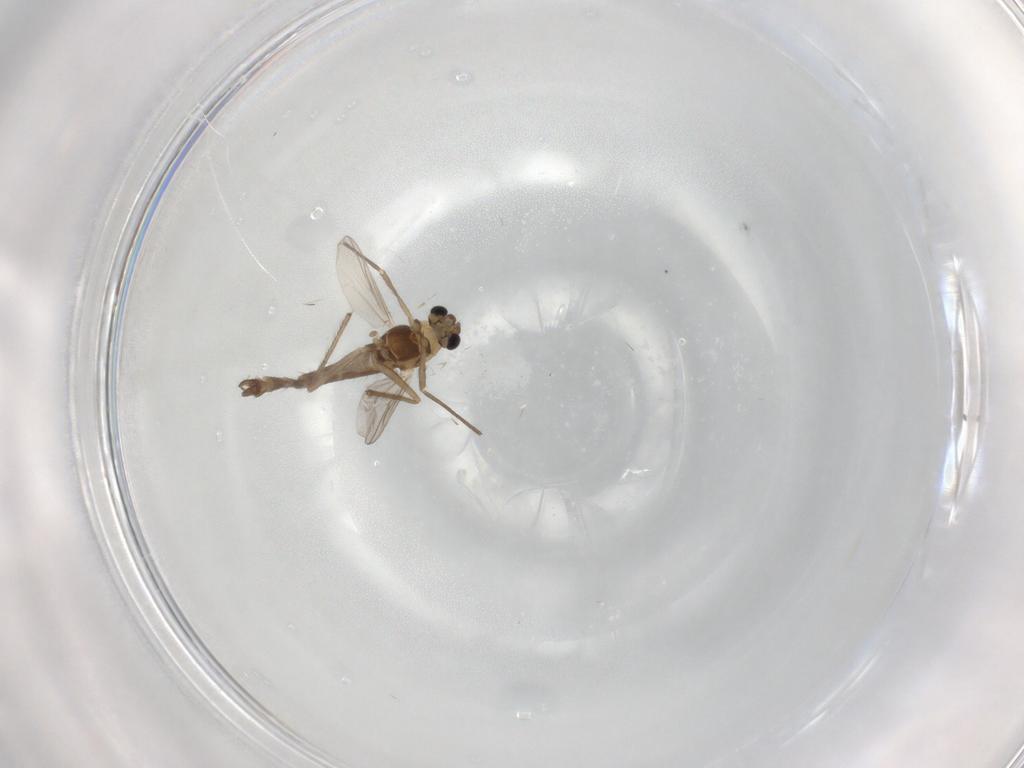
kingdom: Animalia
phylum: Arthropoda
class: Insecta
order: Diptera
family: Chironomidae
